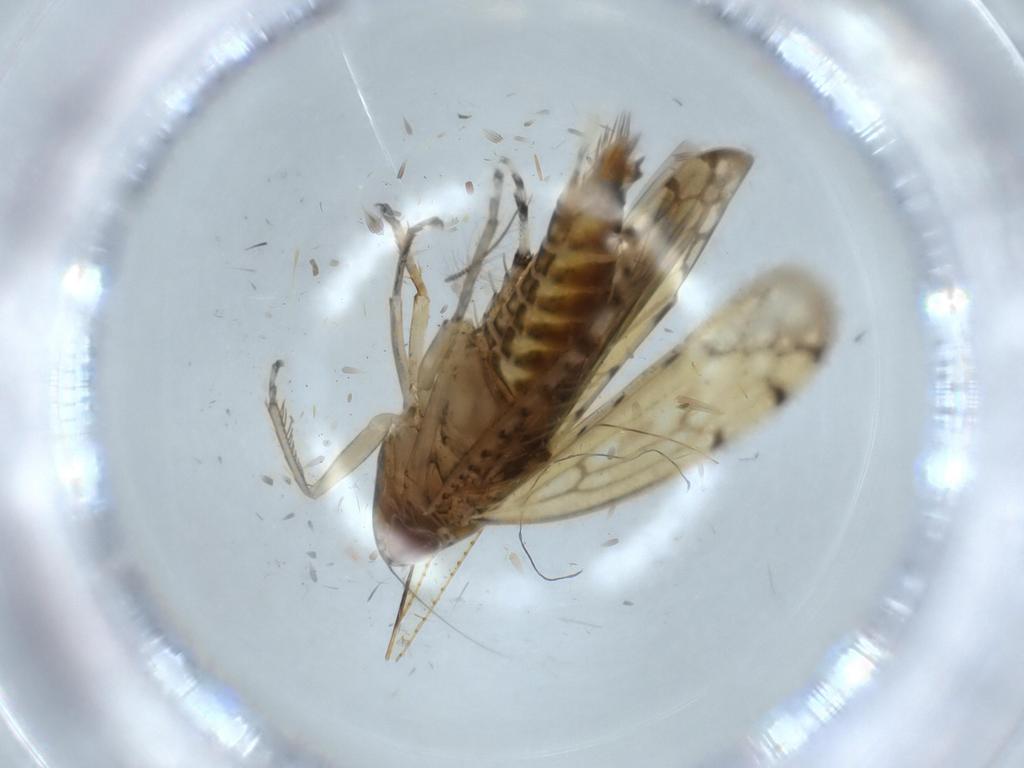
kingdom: Animalia
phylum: Arthropoda
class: Insecta
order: Hemiptera
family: Cicadellidae
